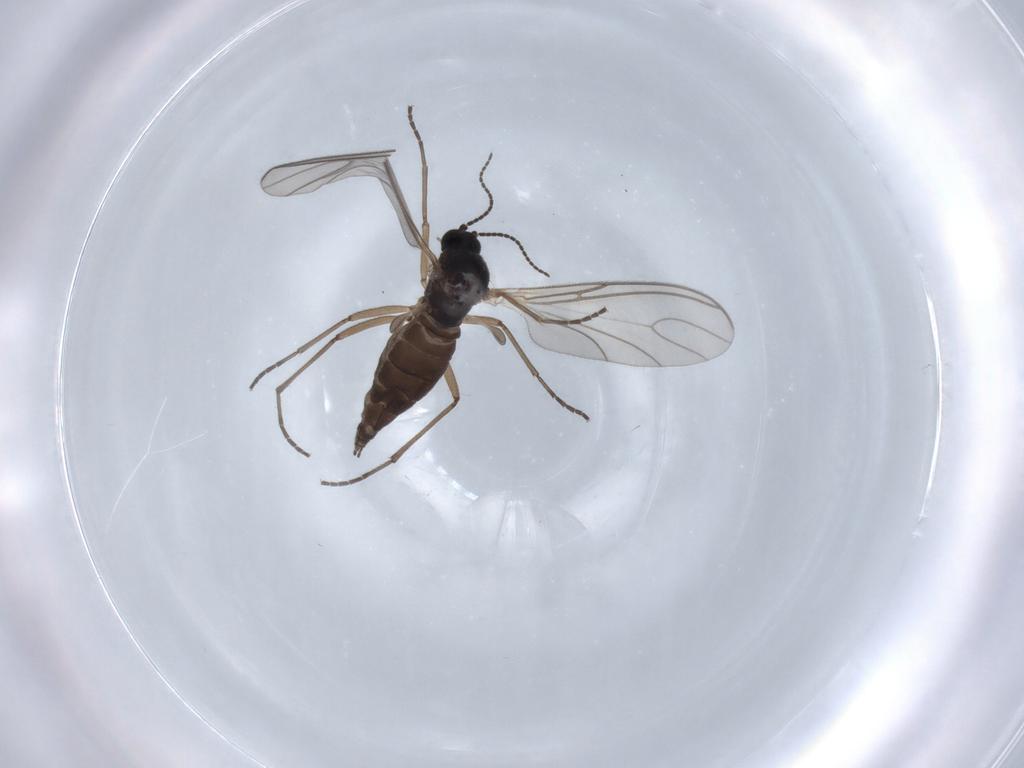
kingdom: Animalia
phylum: Arthropoda
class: Insecta
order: Diptera
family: Sciaridae
